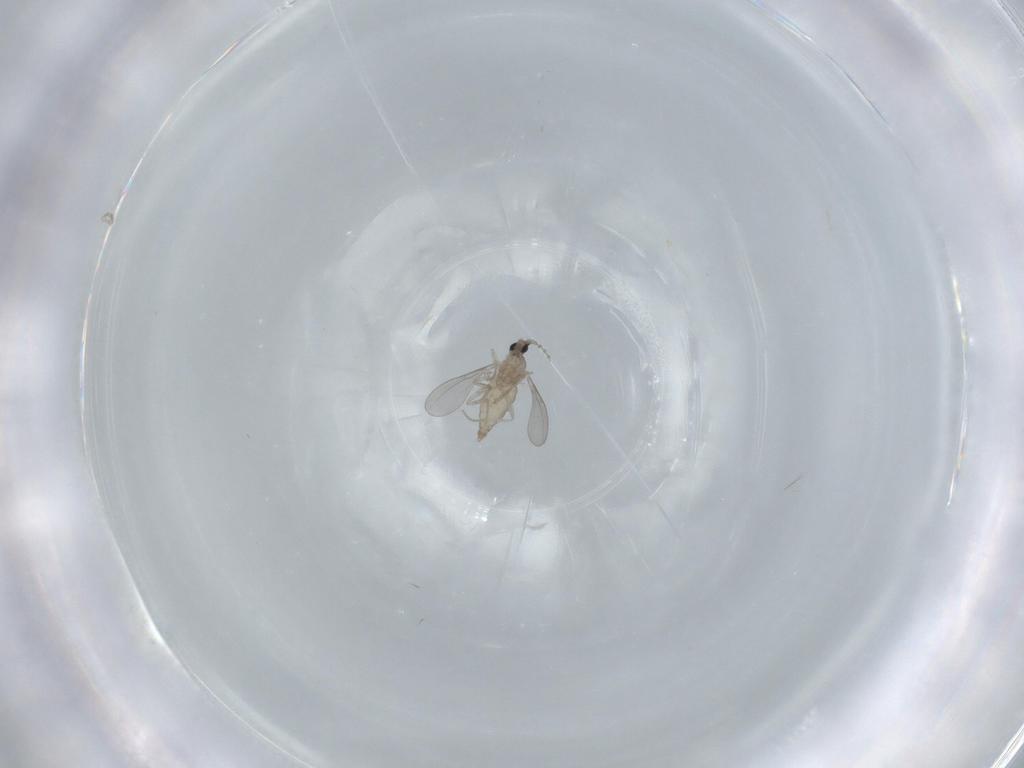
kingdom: Animalia
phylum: Arthropoda
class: Insecta
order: Diptera
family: Cecidomyiidae
